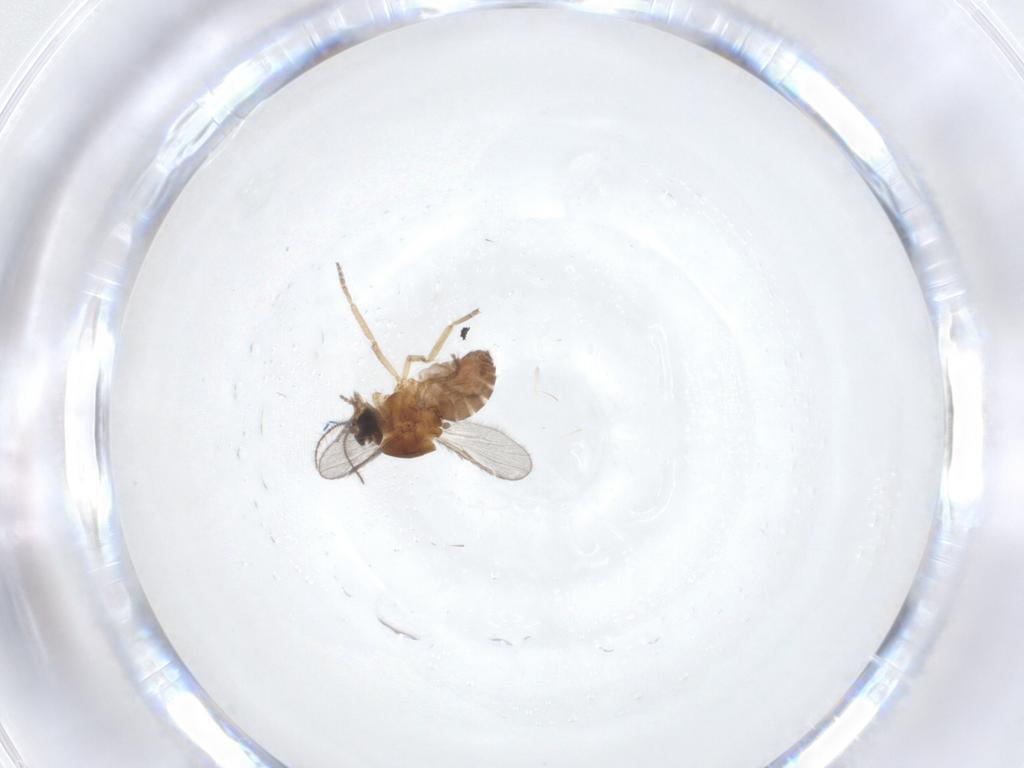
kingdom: Animalia
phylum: Arthropoda
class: Insecta
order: Diptera
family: Ceratopogonidae
